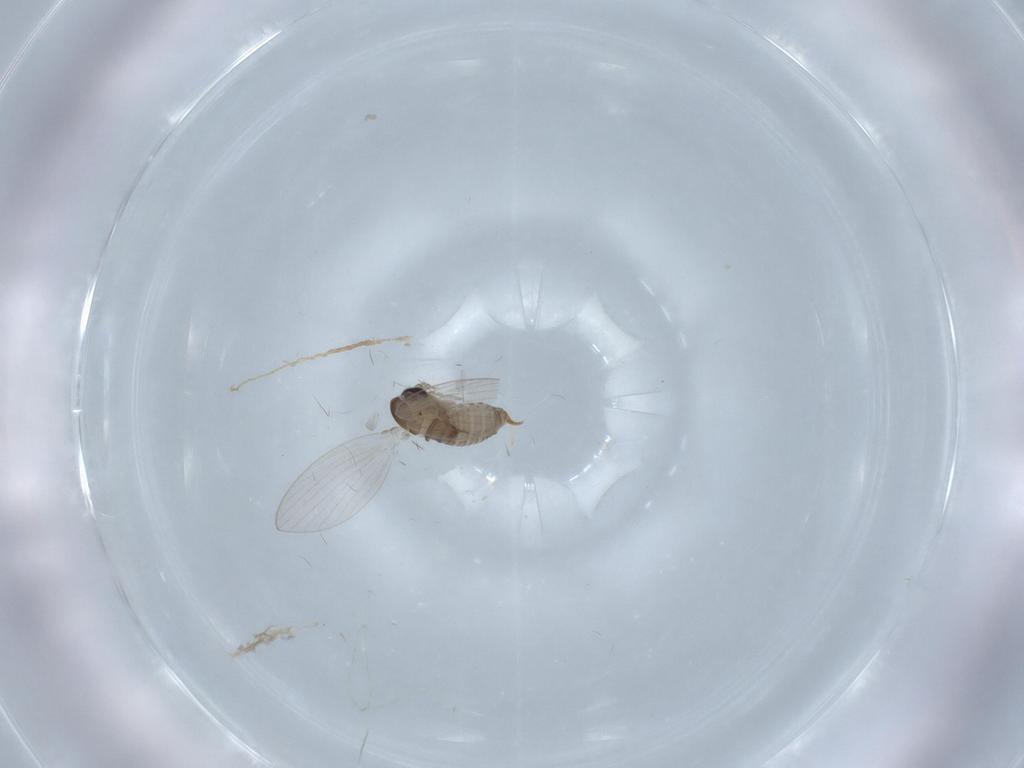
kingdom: Animalia
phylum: Arthropoda
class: Insecta
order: Diptera
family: Psychodidae
